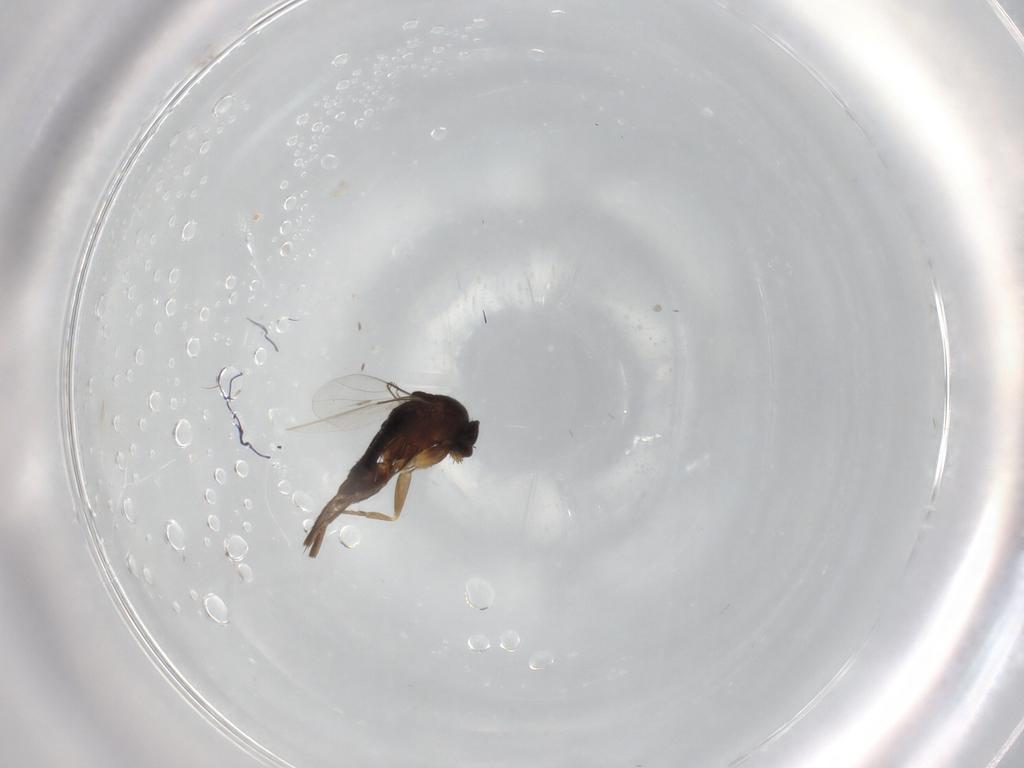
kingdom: Animalia
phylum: Arthropoda
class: Insecta
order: Diptera
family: Phoridae
